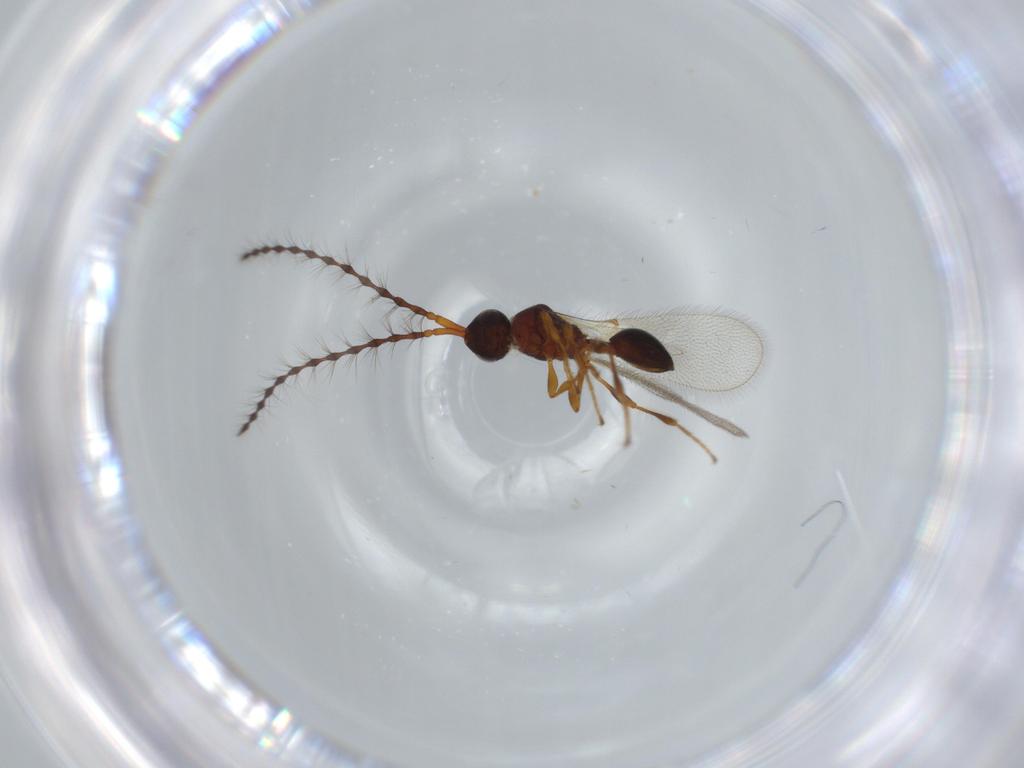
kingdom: Animalia
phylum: Arthropoda
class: Insecta
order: Hymenoptera
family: Diapriidae
